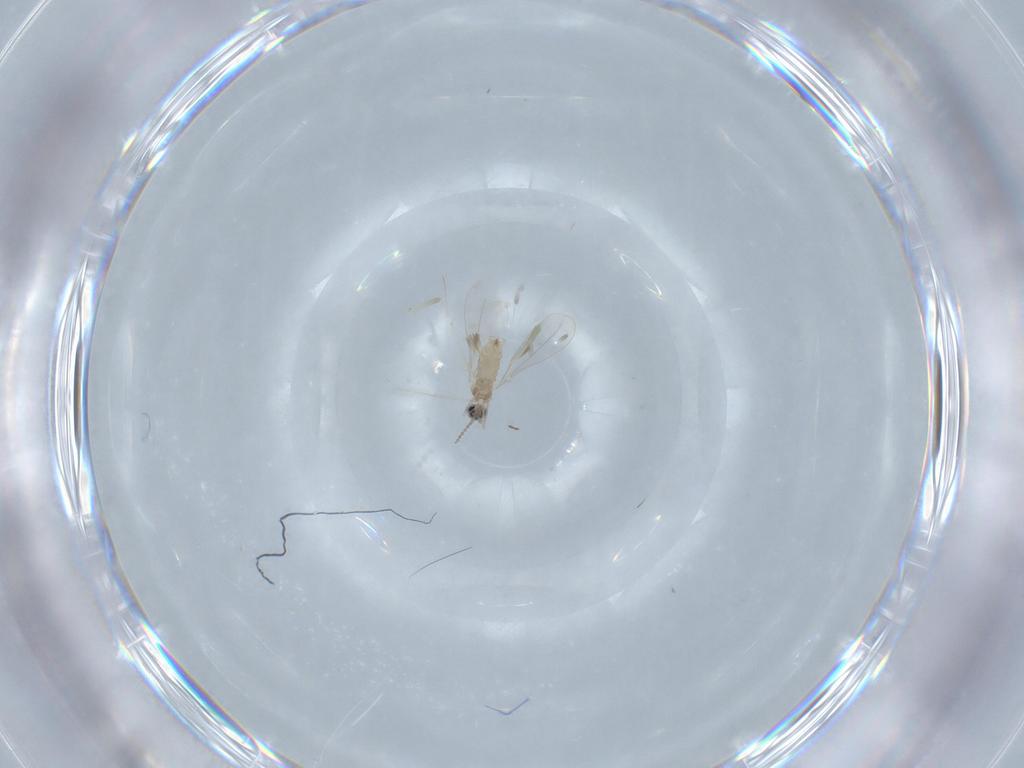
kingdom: Animalia
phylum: Arthropoda
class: Insecta
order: Diptera
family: Cecidomyiidae
